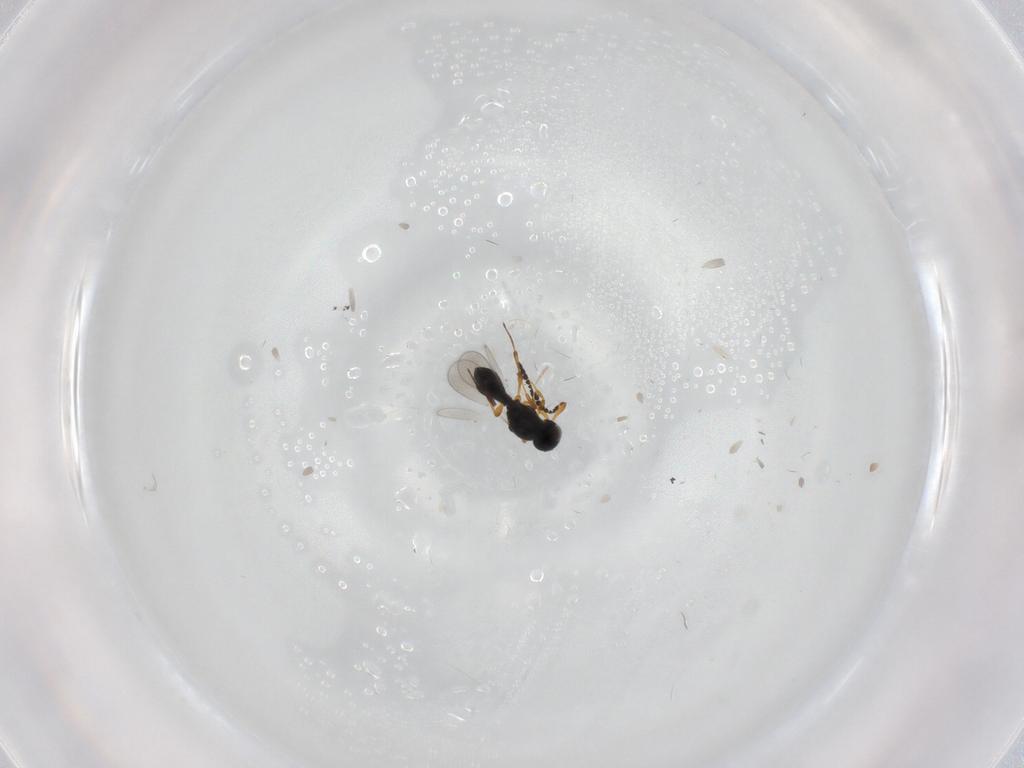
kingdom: Animalia
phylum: Arthropoda
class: Insecta
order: Hymenoptera
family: Platygastridae
